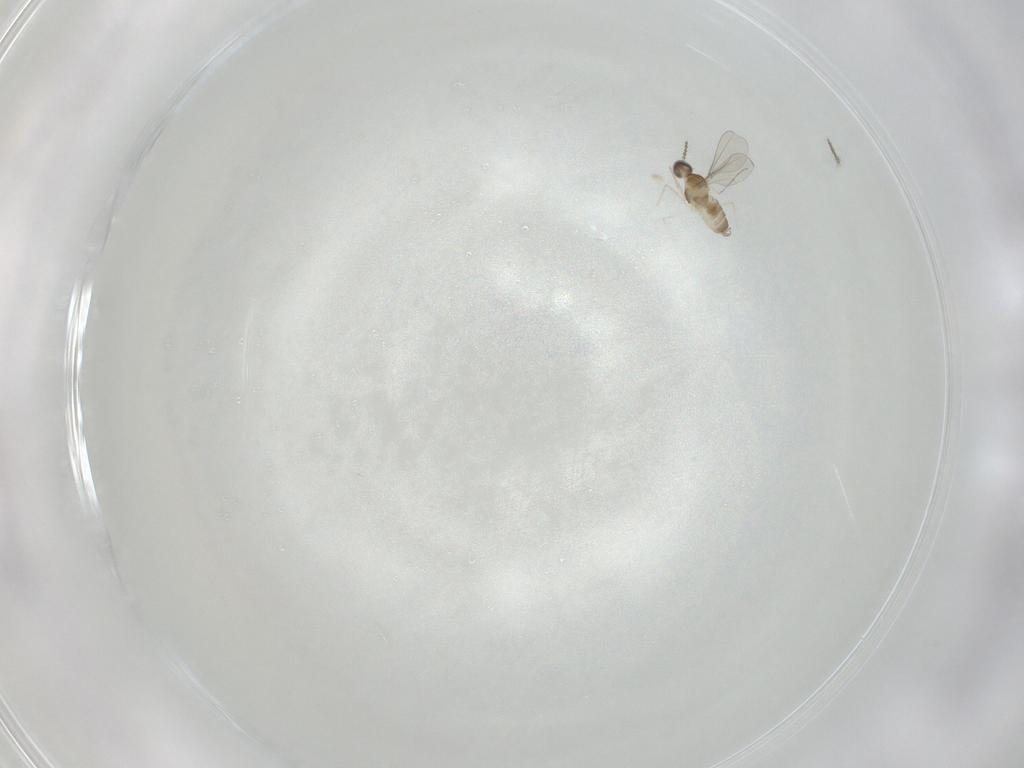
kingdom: Animalia
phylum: Arthropoda
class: Insecta
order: Diptera
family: Cecidomyiidae
